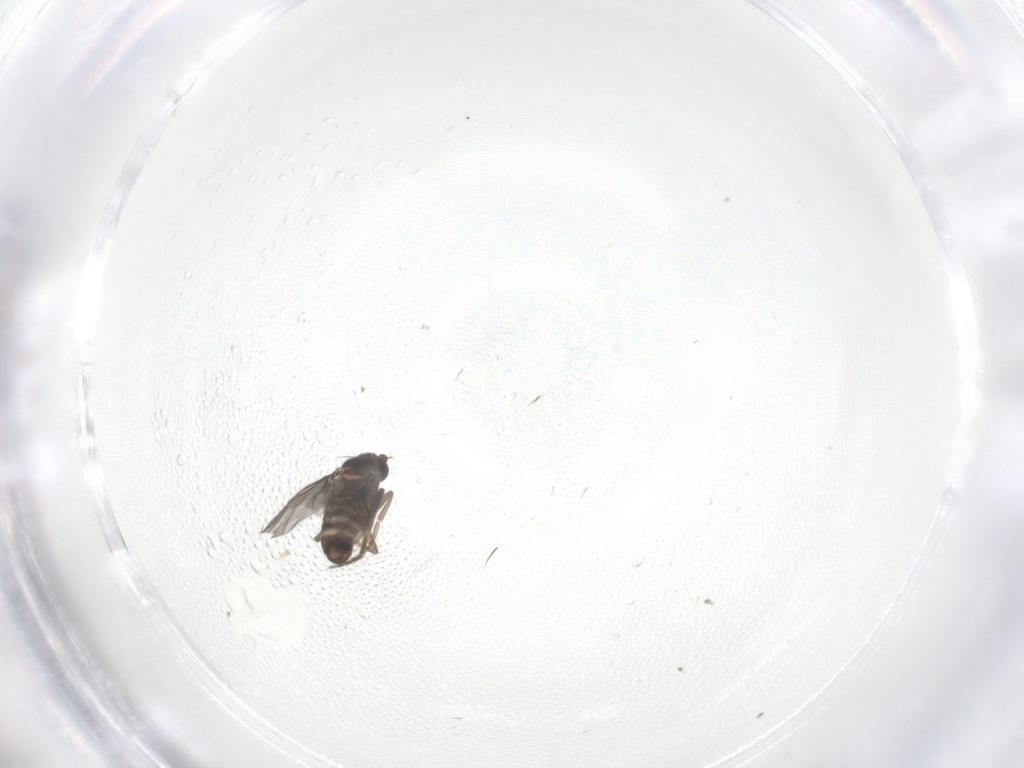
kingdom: Animalia
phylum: Arthropoda
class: Insecta
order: Diptera
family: Chironomidae
